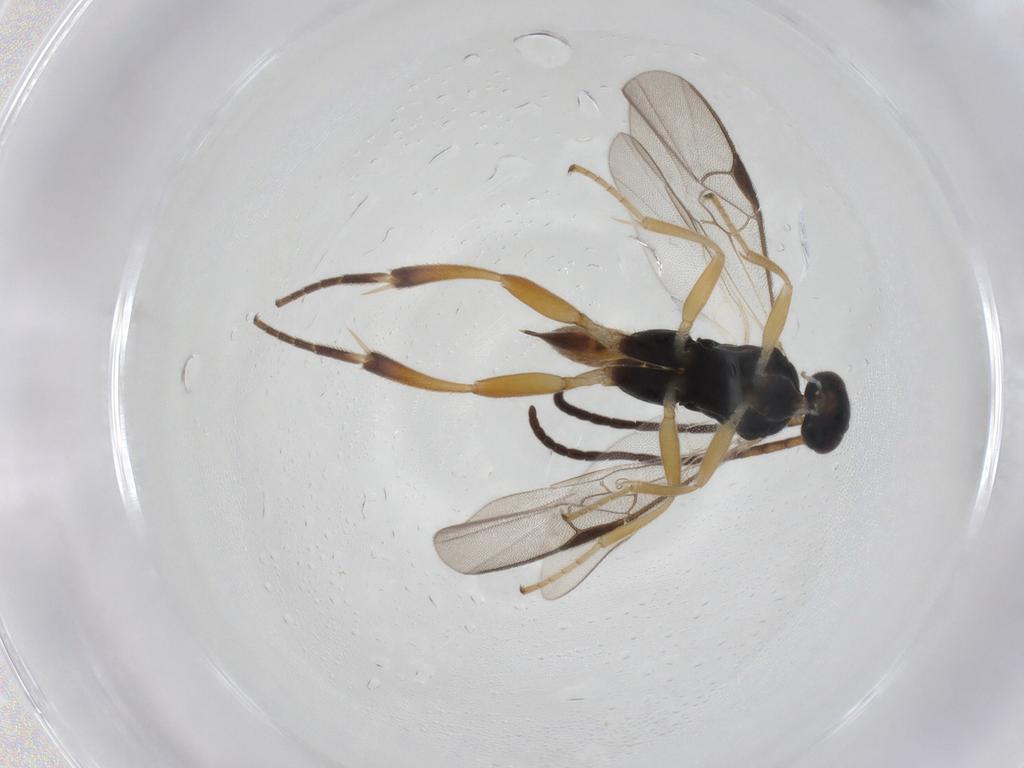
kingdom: Animalia
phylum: Arthropoda
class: Insecta
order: Hymenoptera
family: Braconidae
